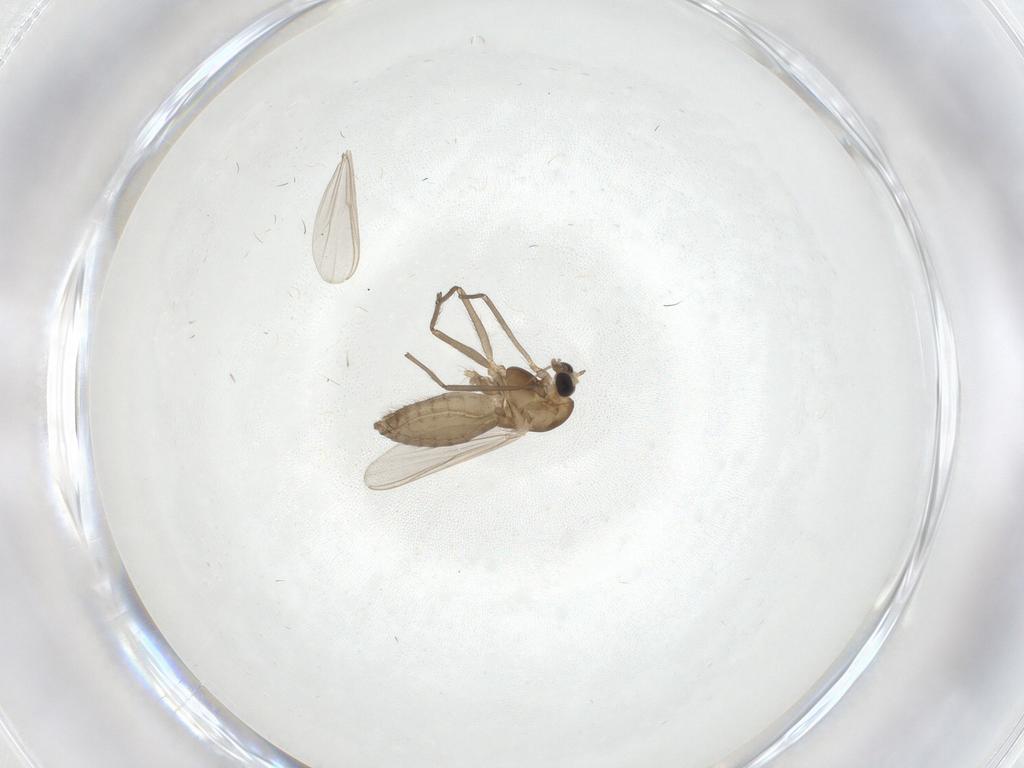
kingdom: Animalia
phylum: Arthropoda
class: Insecta
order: Diptera
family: Chironomidae
